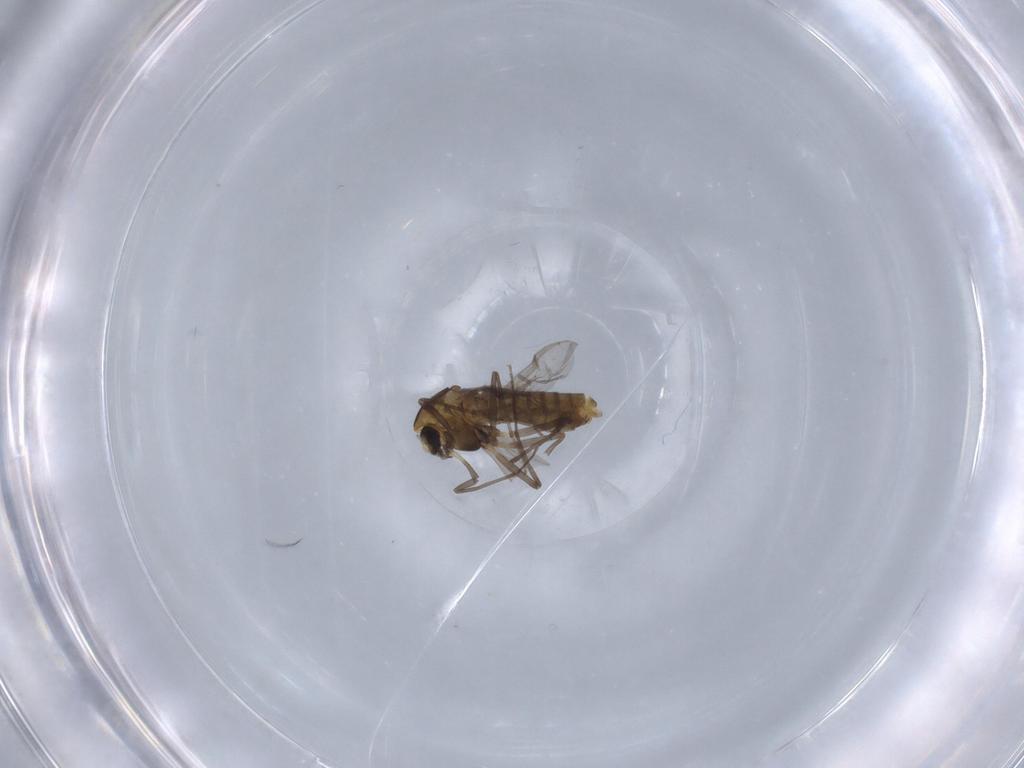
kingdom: Animalia
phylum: Arthropoda
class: Insecta
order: Diptera
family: Chironomidae
